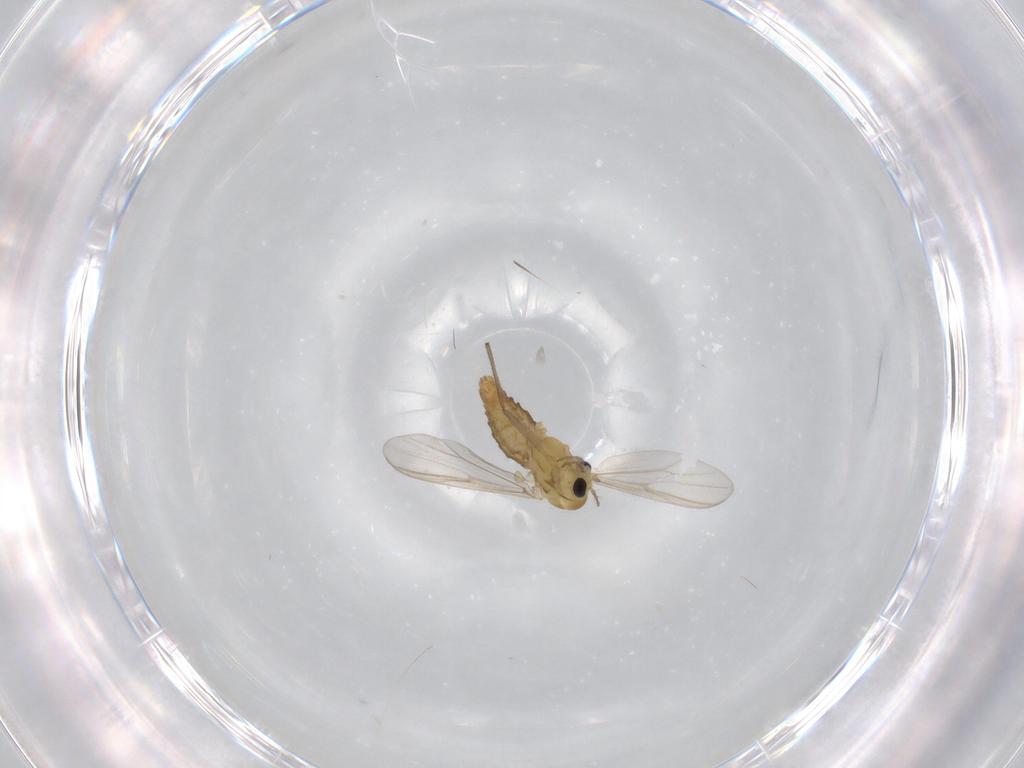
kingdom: Animalia
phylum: Arthropoda
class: Insecta
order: Diptera
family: Chironomidae
